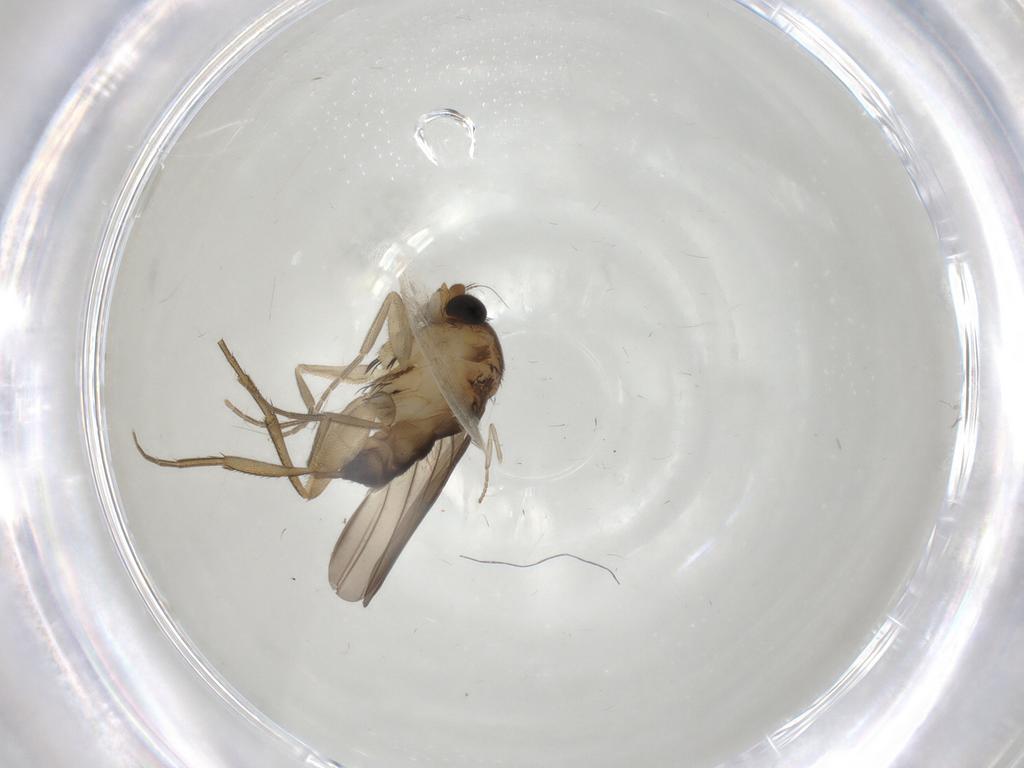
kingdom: Animalia
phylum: Arthropoda
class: Insecta
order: Diptera
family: Phoridae
